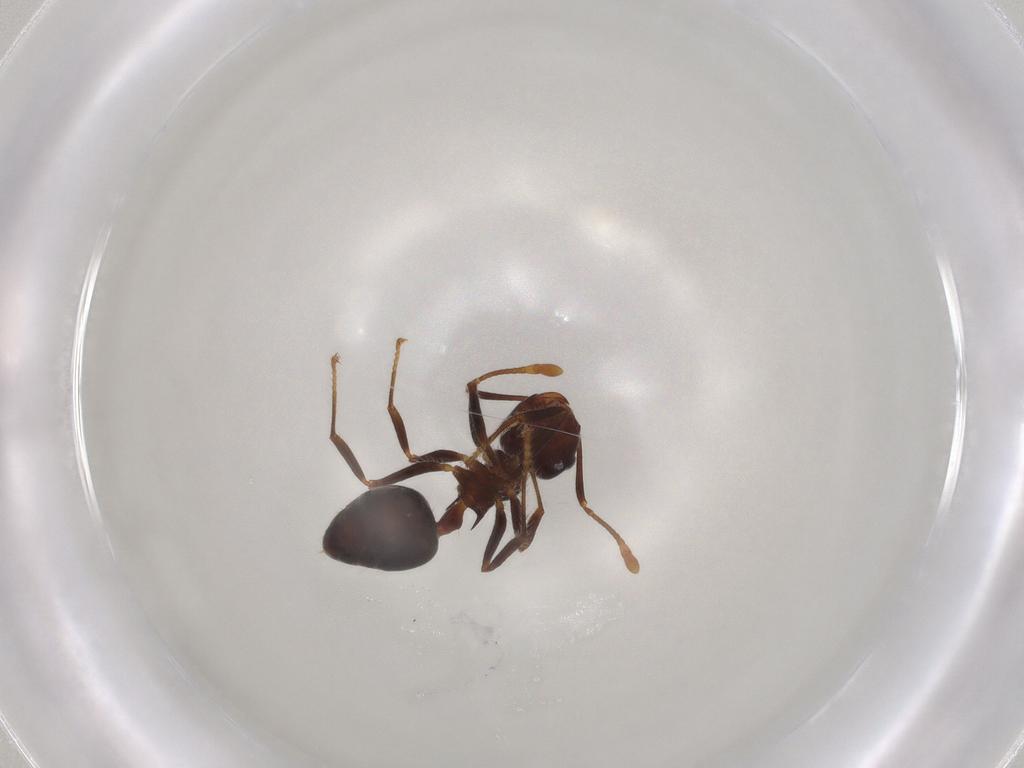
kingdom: Animalia
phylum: Arthropoda
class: Insecta
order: Hymenoptera
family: Formicidae
